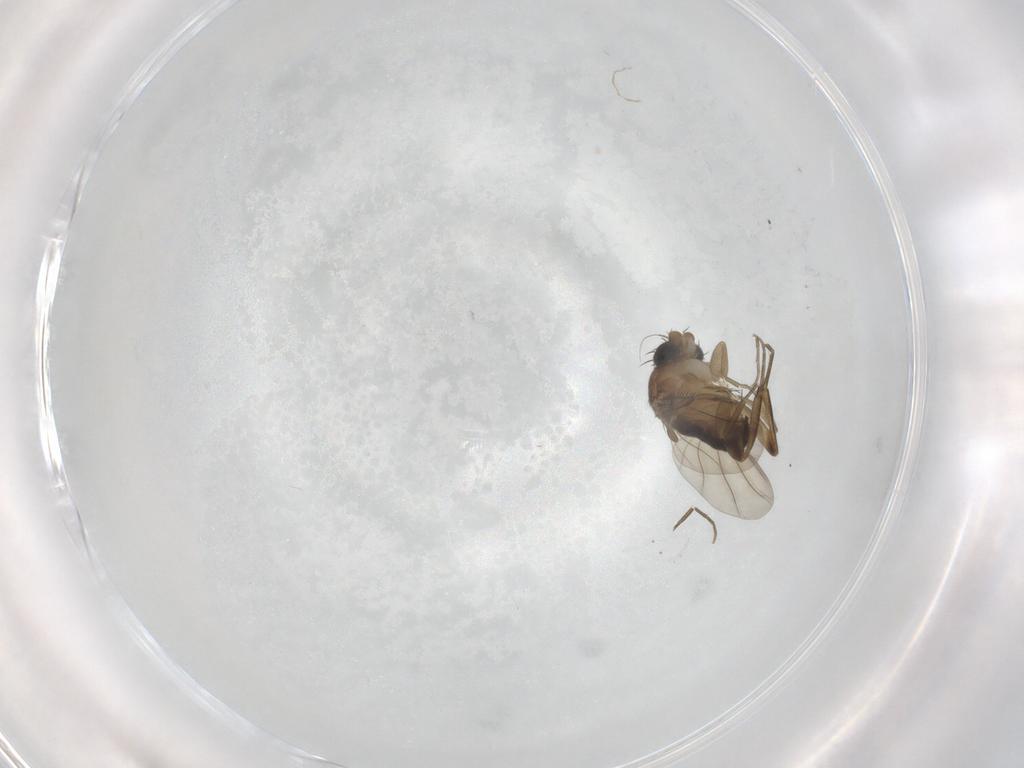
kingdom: Animalia
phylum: Arthropoda
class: Insecta
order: Diptera
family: Phoridae
